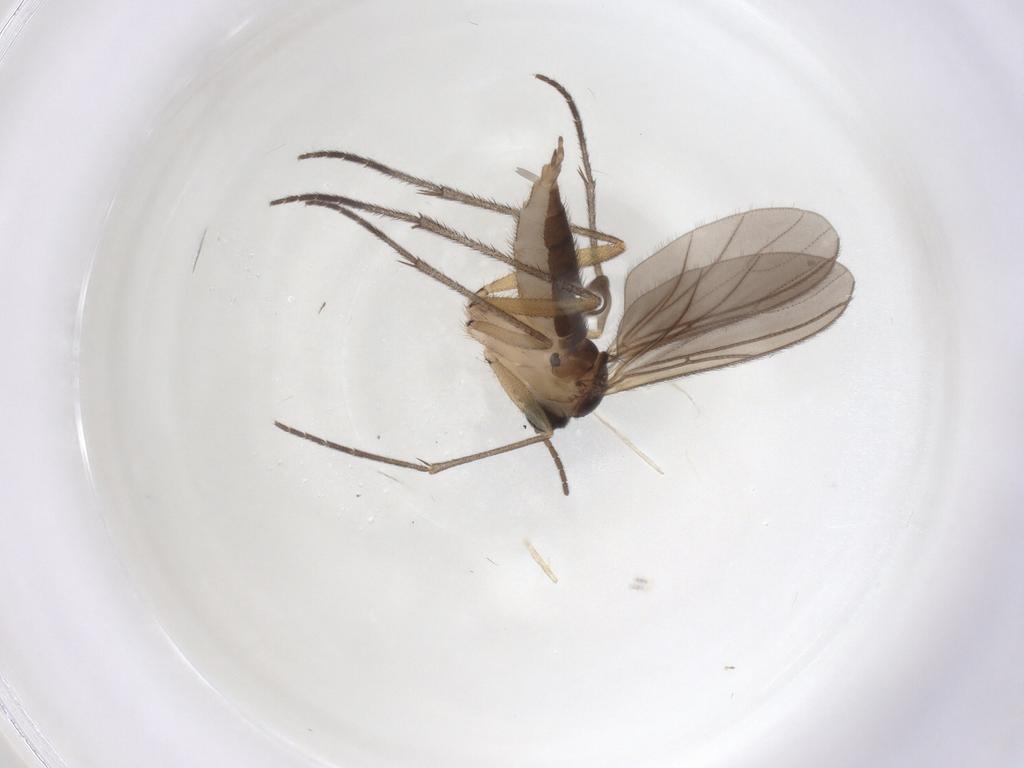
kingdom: Animalia
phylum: Arthropoda
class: Insecta
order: Diptera
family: Sciaridae
